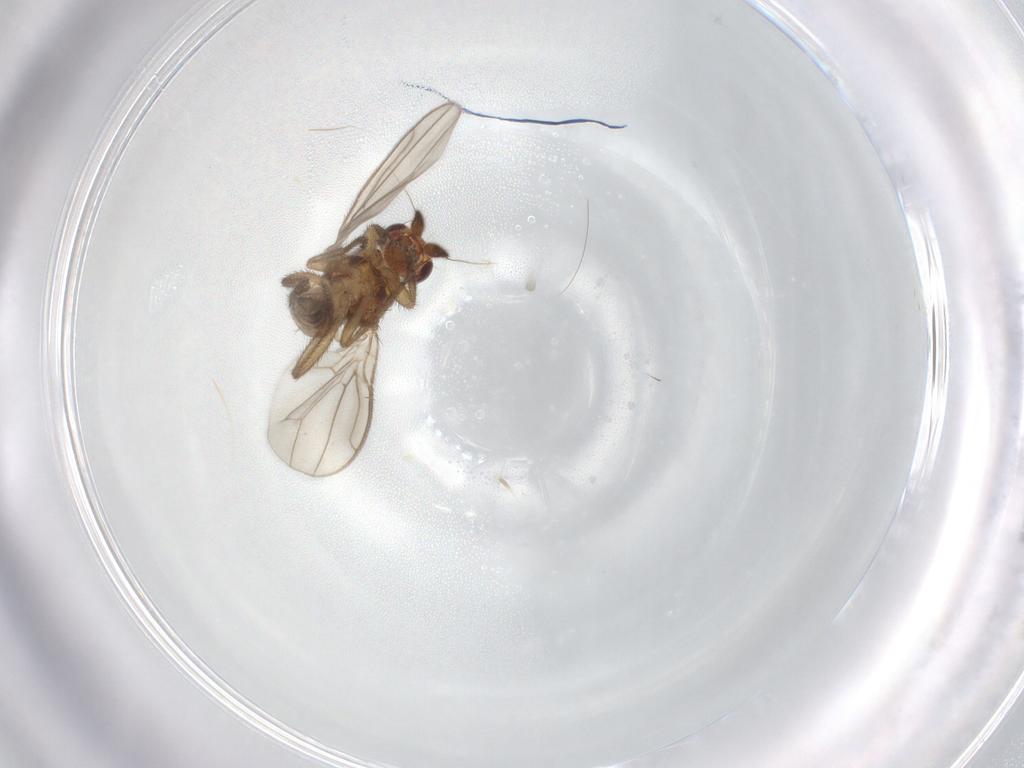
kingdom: Animalia
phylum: Arthropoda
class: Insecta
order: Diptera
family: Sphaeroceridae
